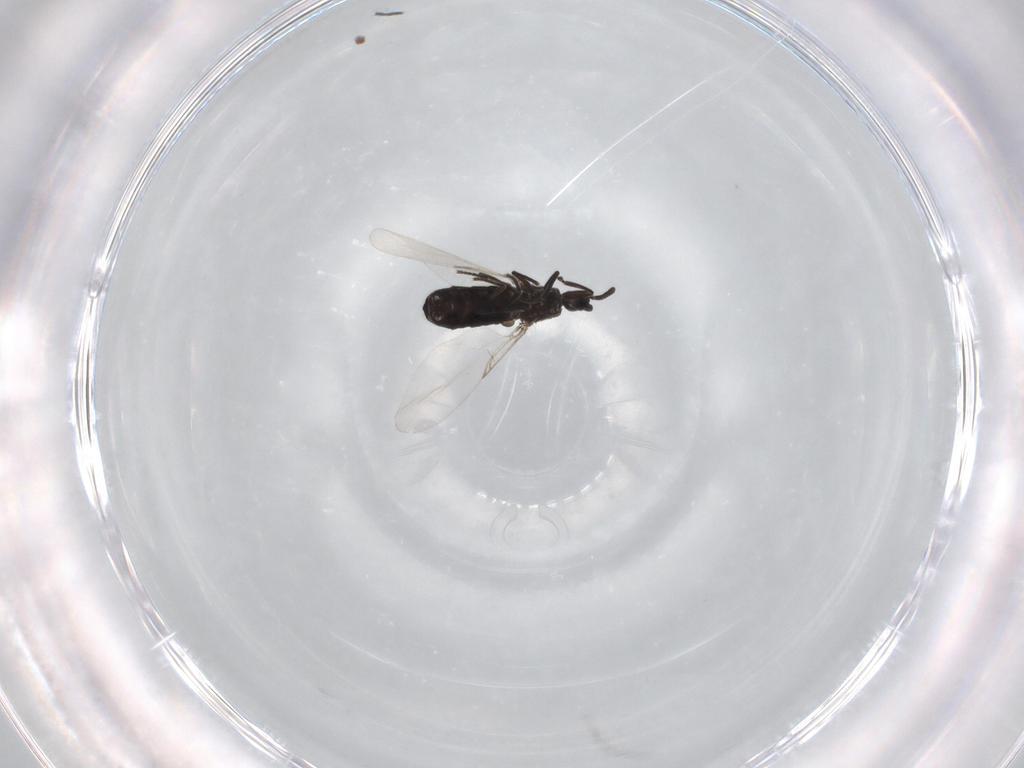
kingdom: Animalia
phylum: Arthropoda
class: Insecta
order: Diptera
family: Scatopsidae
